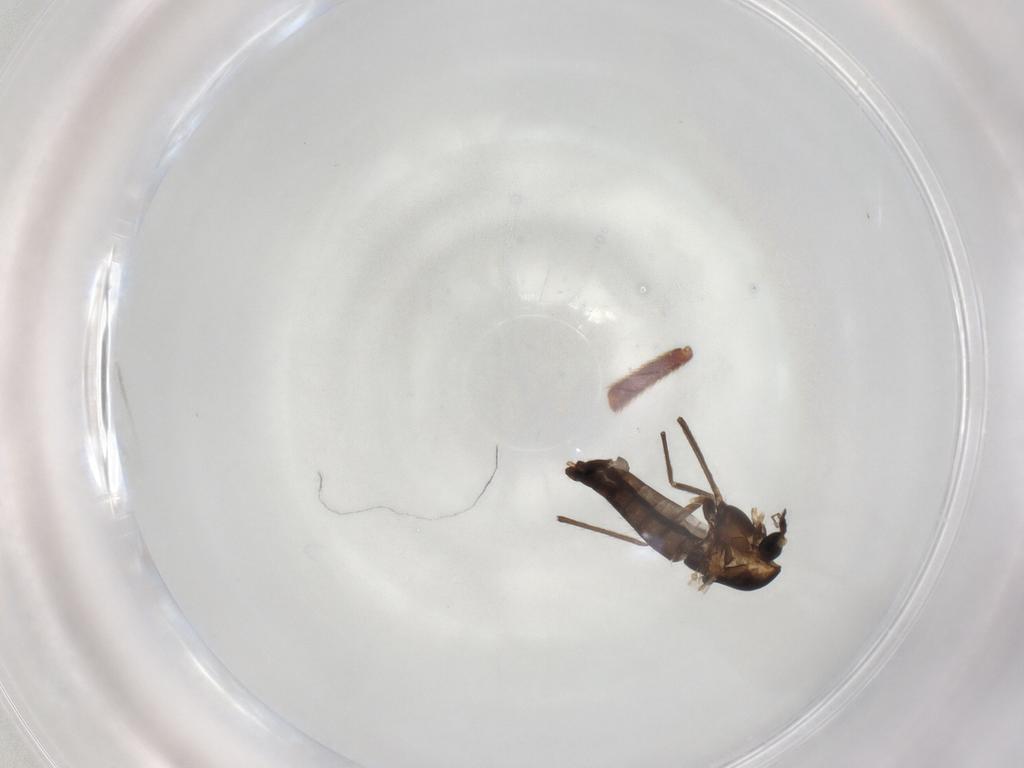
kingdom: Animalia
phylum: Arthropoda
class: Insecta
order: Diptera
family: Chironomidae
